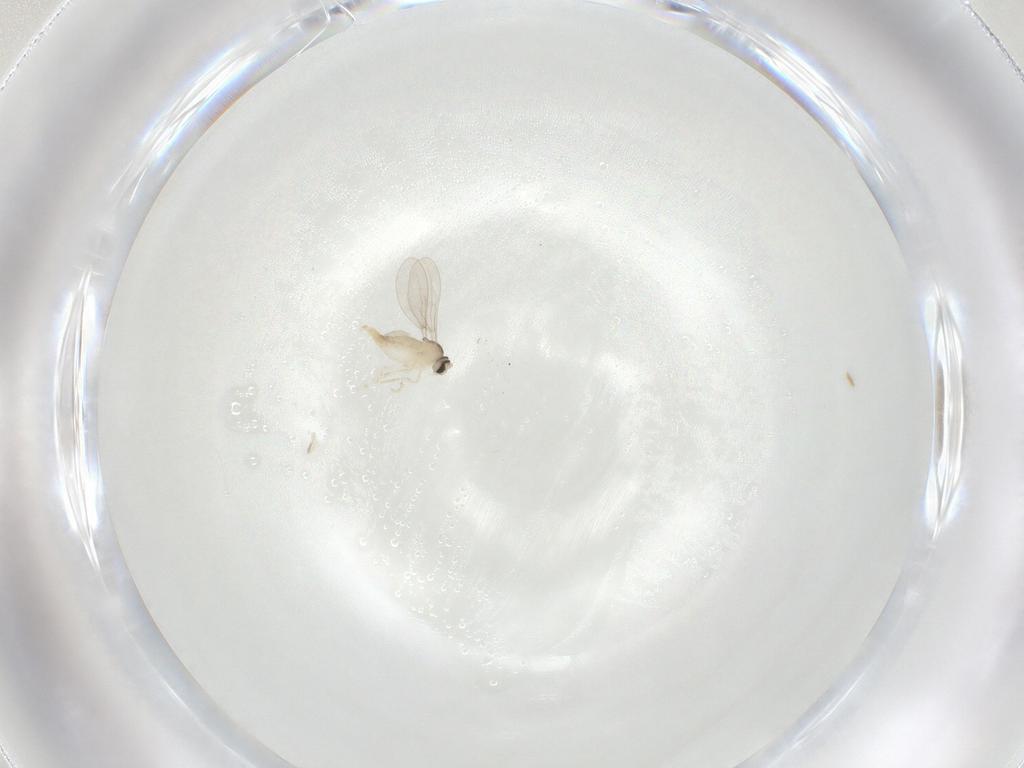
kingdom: Animalia
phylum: Arthropoda
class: Insecta
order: Diptera
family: Cecidomyiidae
